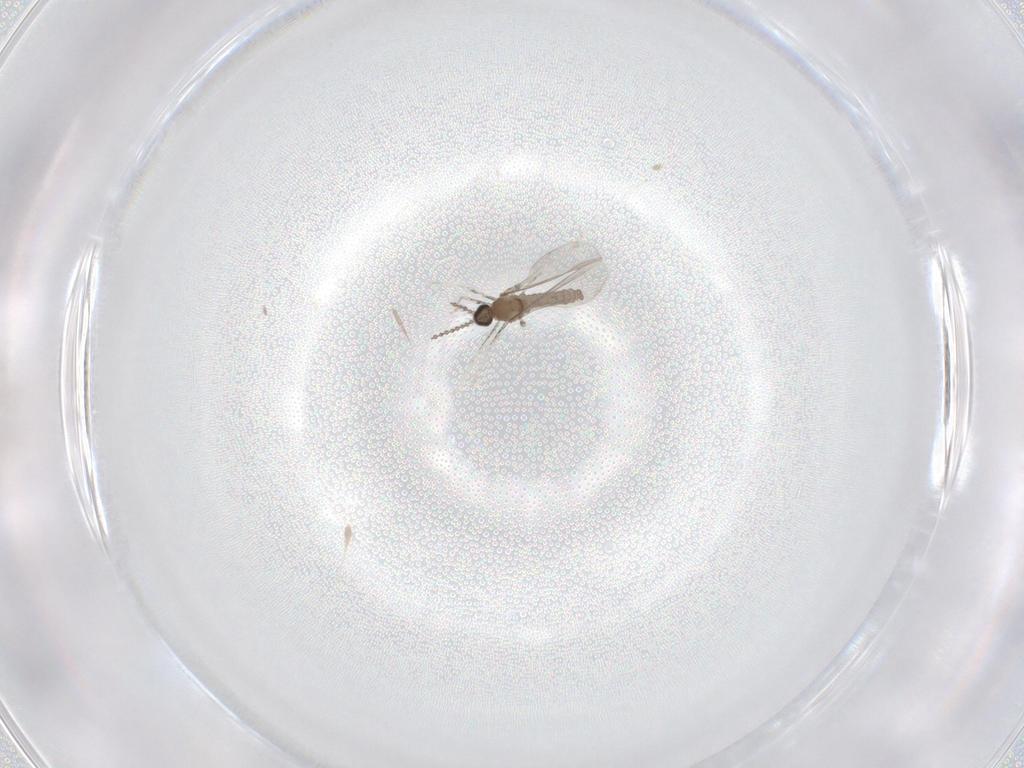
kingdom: Animalia
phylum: Arthropoda
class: Insecta
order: Diptera
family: Cecidomyiidae
